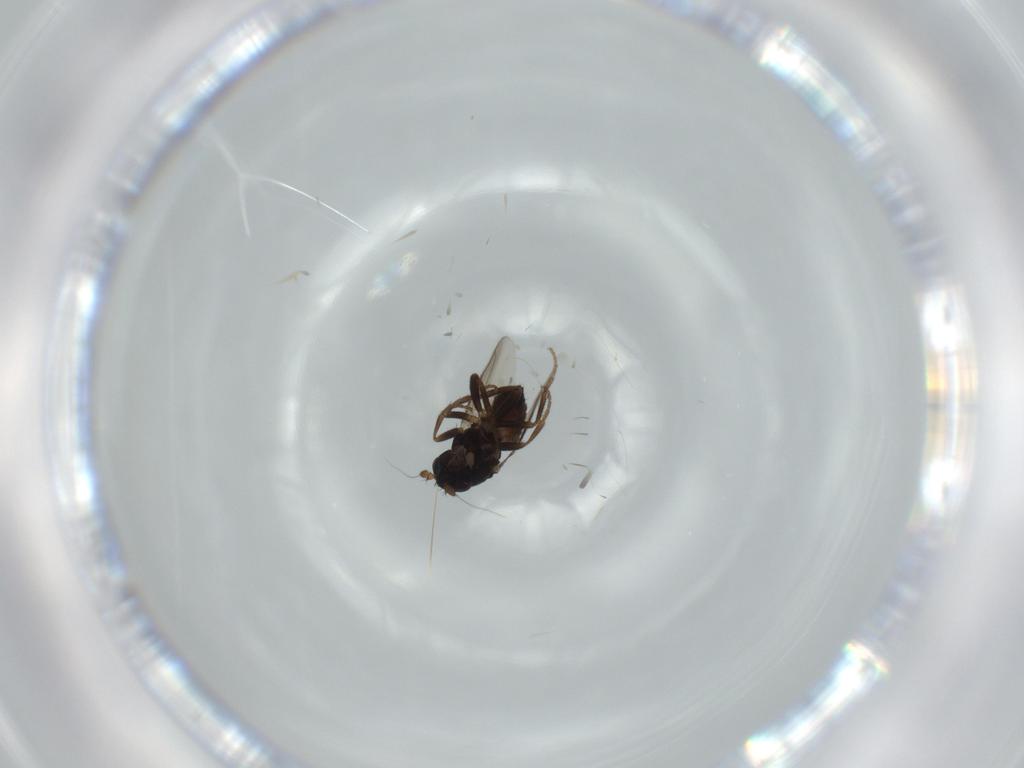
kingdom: Animalia
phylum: Arthropoda
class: Insecta
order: Diptera
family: Sphaeroceridae
